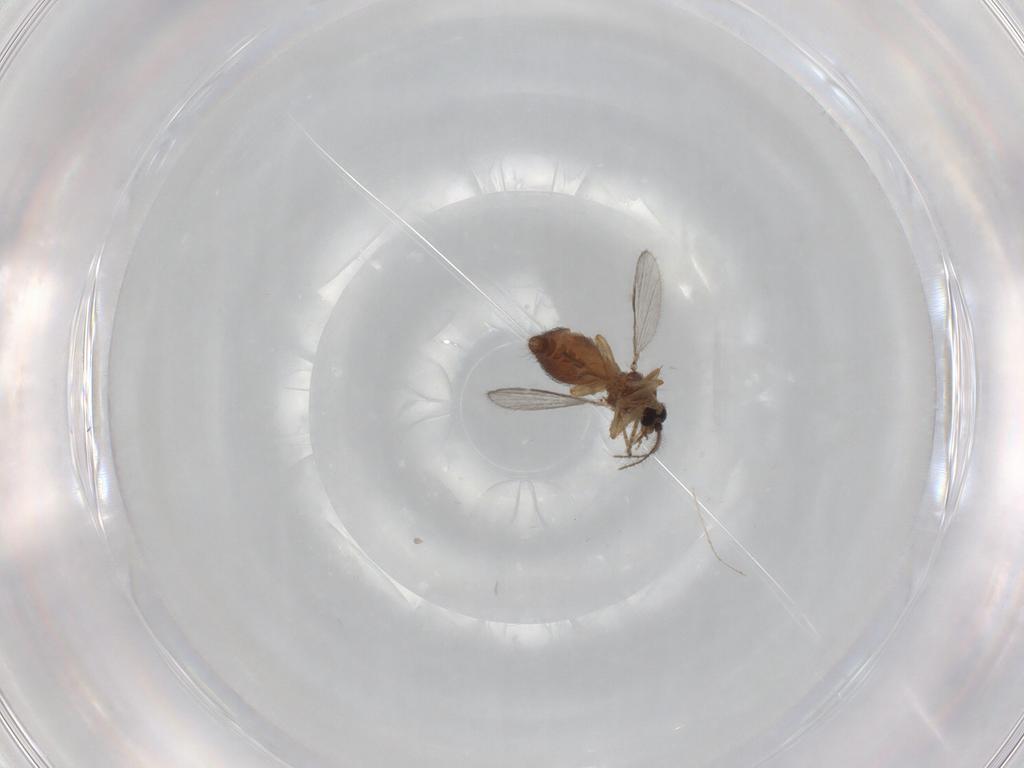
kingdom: Animalia
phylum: Arthropoda
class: Insecta
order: Diptera
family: Ceratopogonidae
